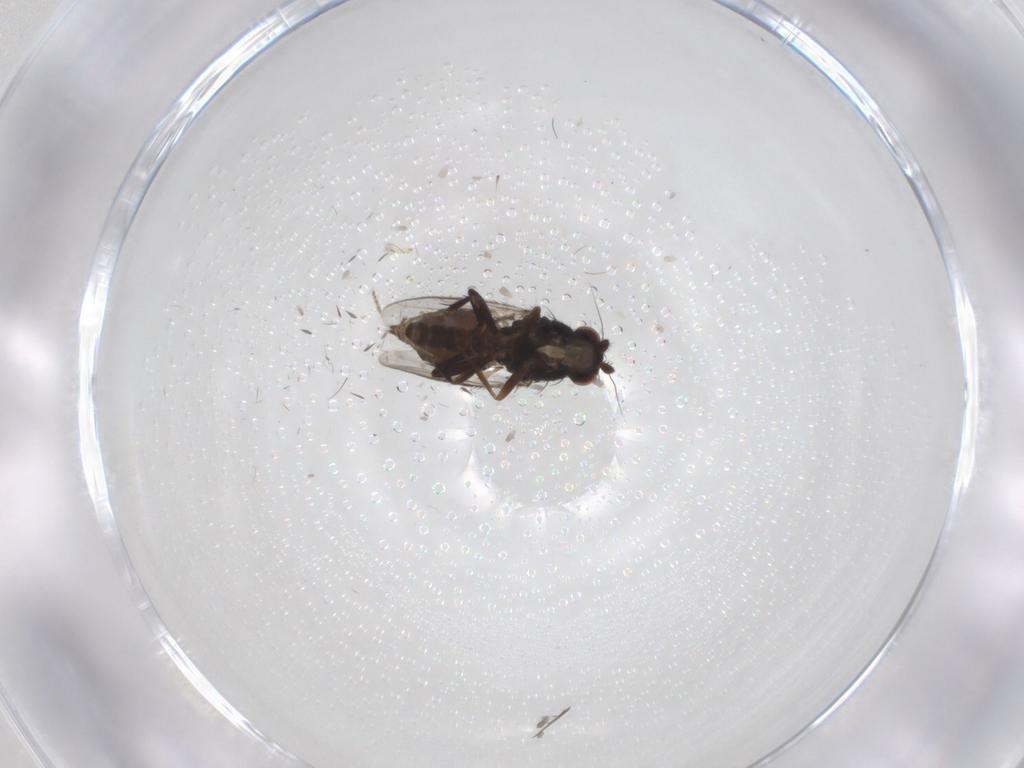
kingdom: Animalia
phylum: Arthropoda
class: Insecta
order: Diptera
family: Sphaeroceridae
